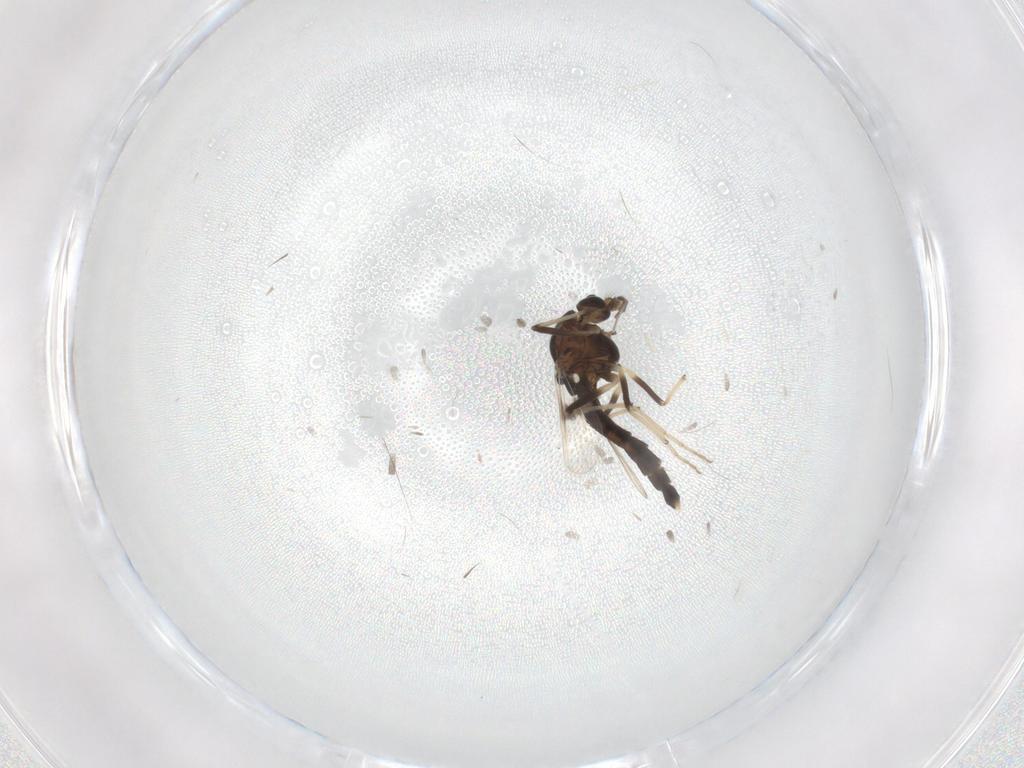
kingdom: Animalia
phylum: Arthropoda
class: Insecta
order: Diptera
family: Chironomidae
